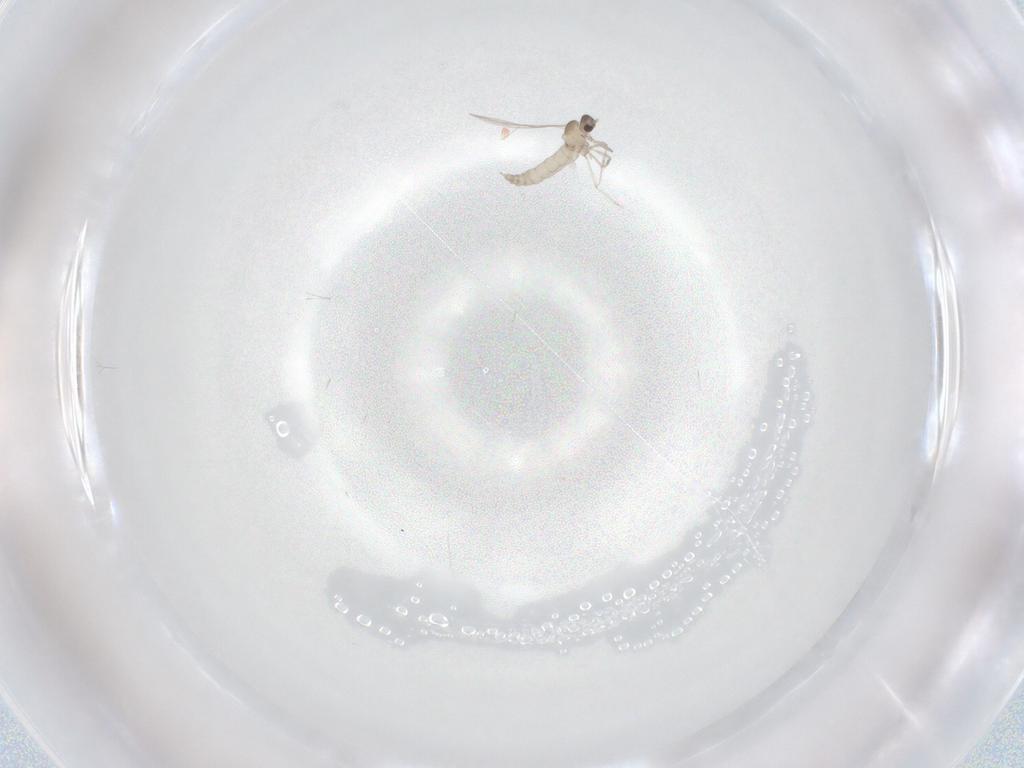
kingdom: Animalia
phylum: Arthropoda
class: Insecta
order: Diptera
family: Cecidomyiidae
